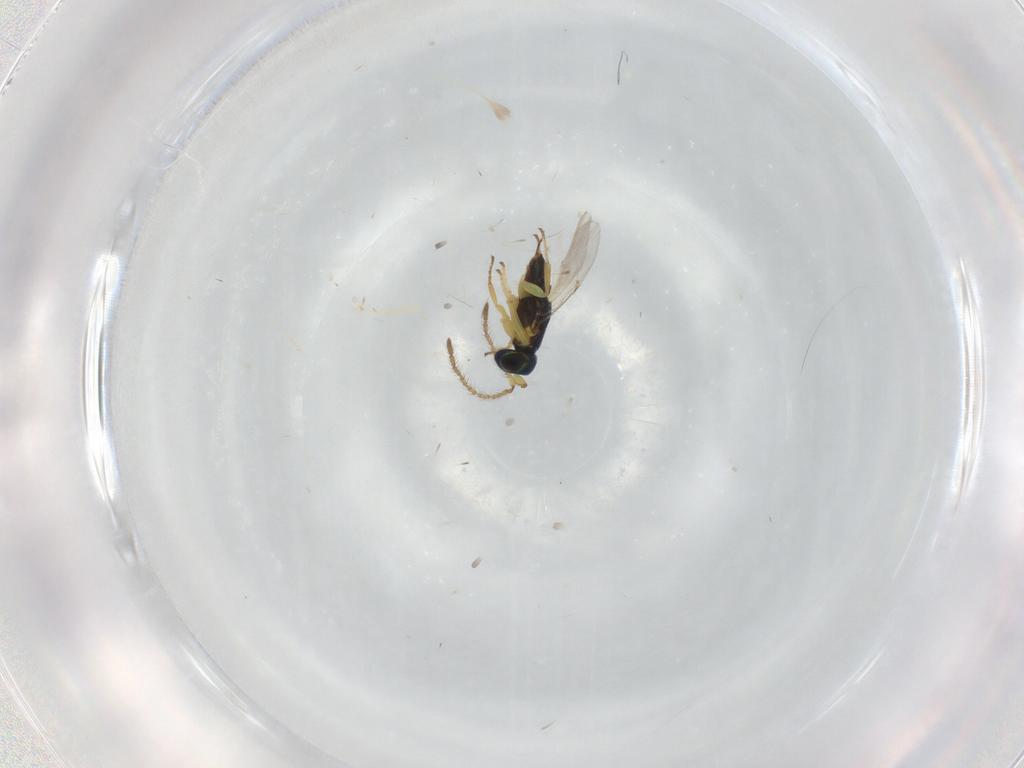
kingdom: Animalia
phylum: Arthropoda
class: Insecta
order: Hymenoptera
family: Encyrtidae
